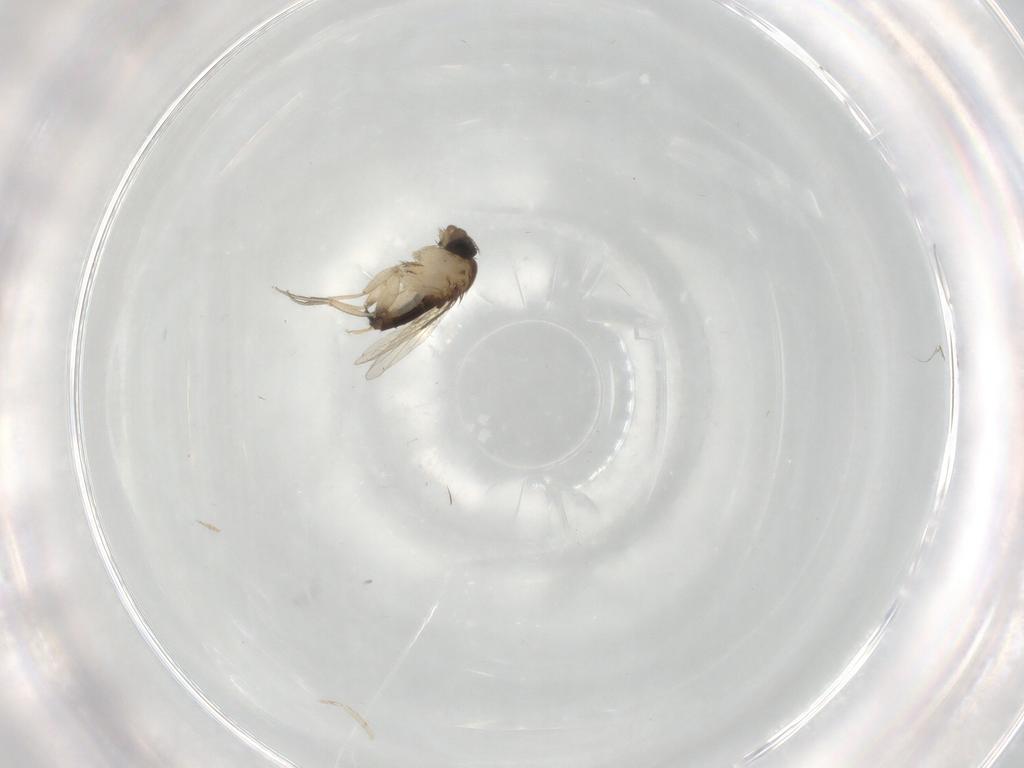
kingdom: Animalia
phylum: Arthropoda
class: Insecta
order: Diptera
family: Phoridae
